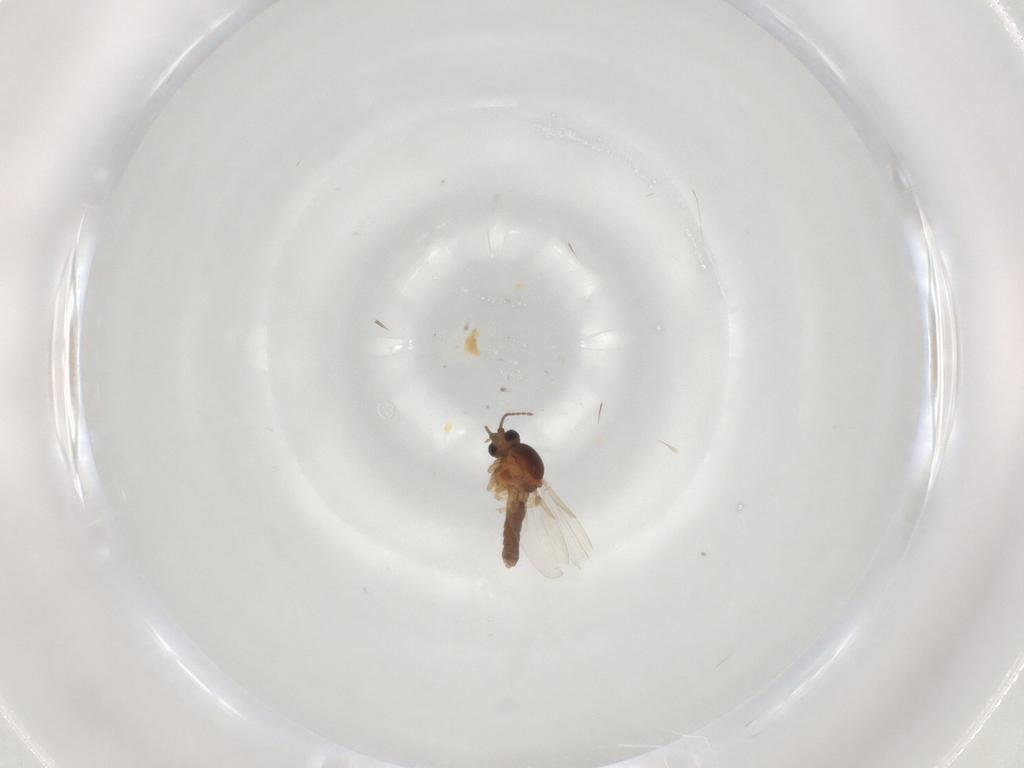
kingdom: Animalia
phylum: Arthropoda
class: Insecta
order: Diptera
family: Ceratopogonidae
